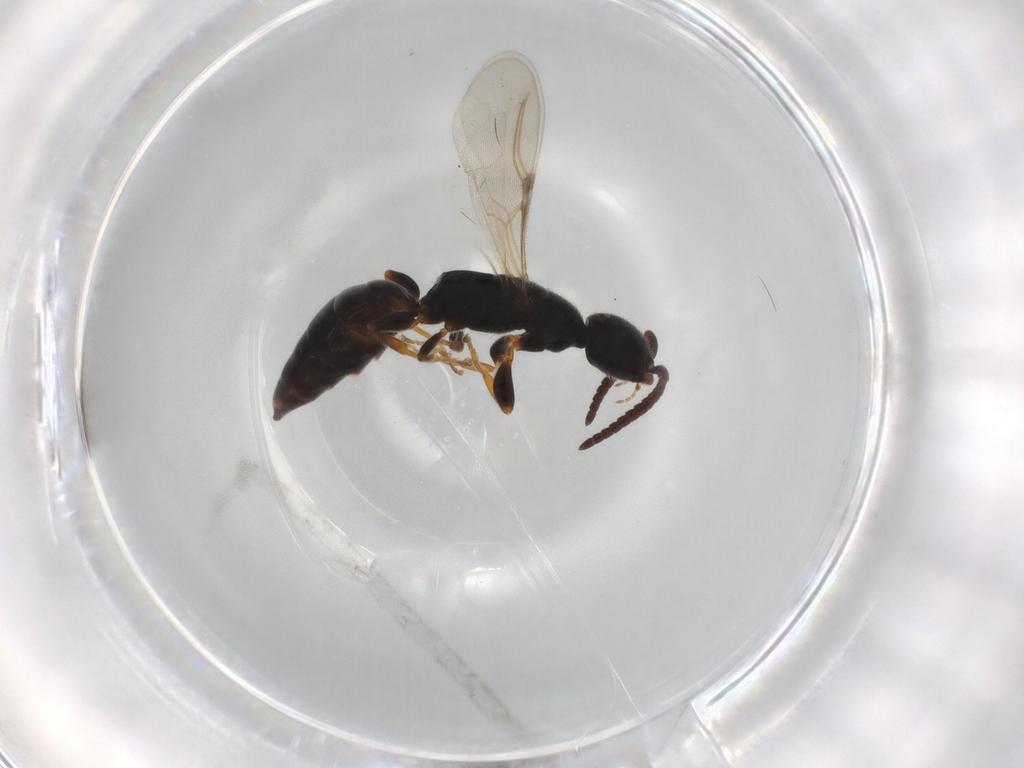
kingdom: Animalia
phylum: Arthropoda
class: Insecta
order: Hymenoptera
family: Bethylidae
